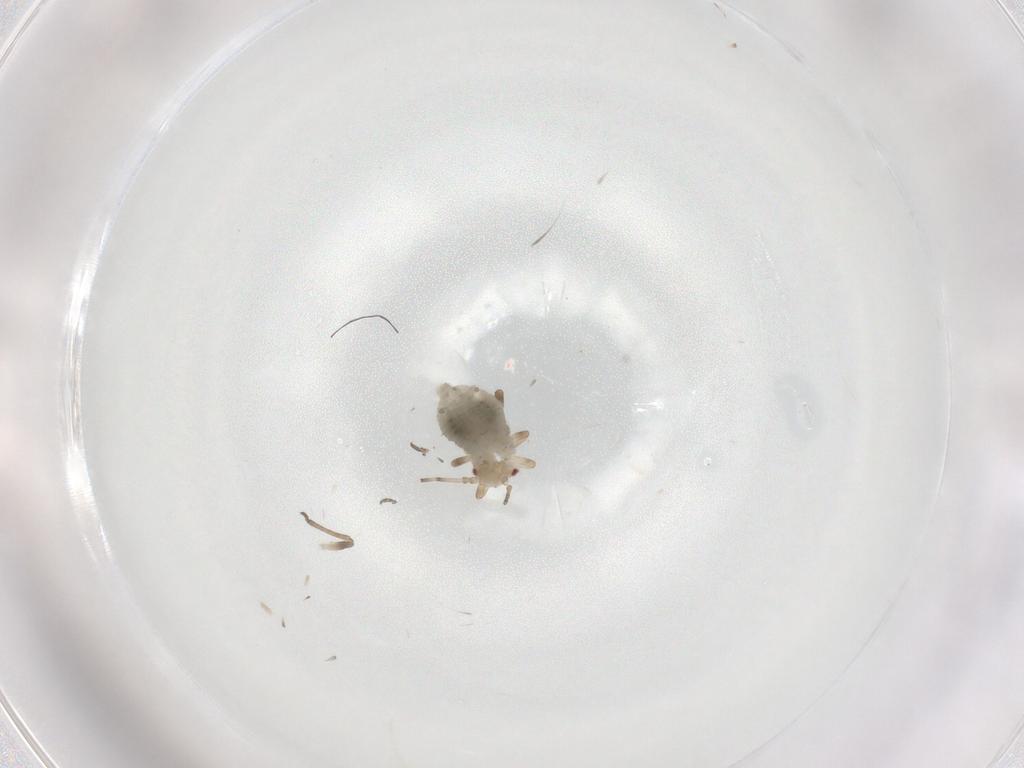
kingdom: Animalia
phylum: Arthropoda
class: Insecta
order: Hemiptera
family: Aphididae
